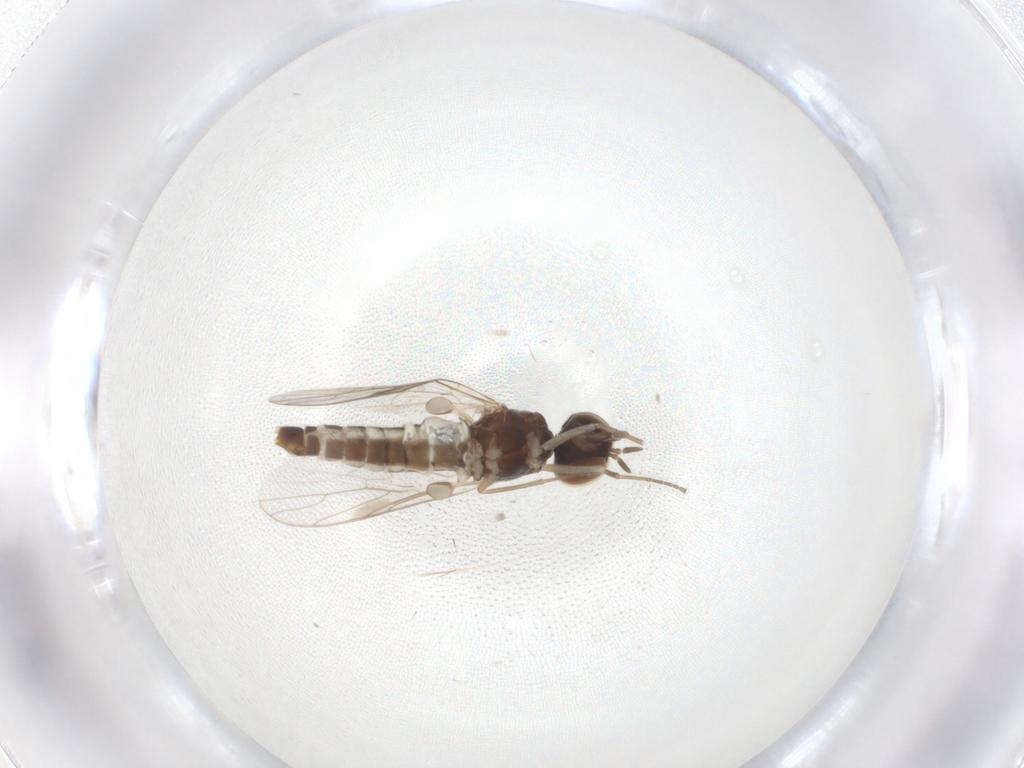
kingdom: Animalia
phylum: Arthropoda
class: Insecta
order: Diptera
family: Scenopinidae
